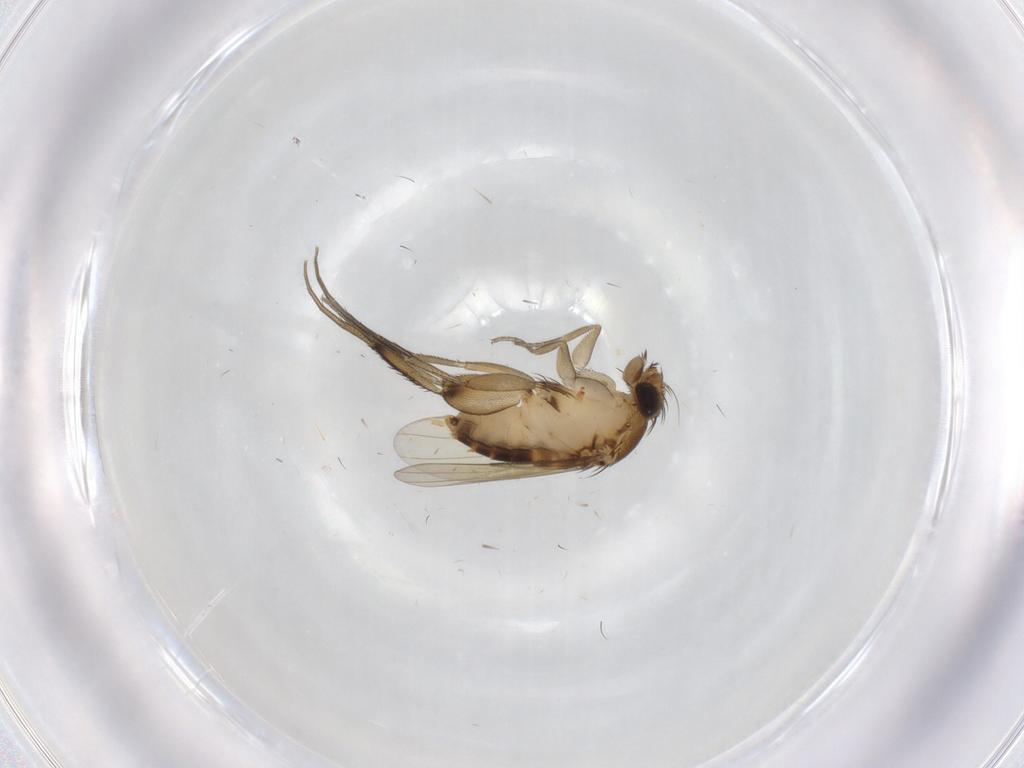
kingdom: Animalia
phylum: Arthropoda
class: Insecta
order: Diptera
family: Phoridae
